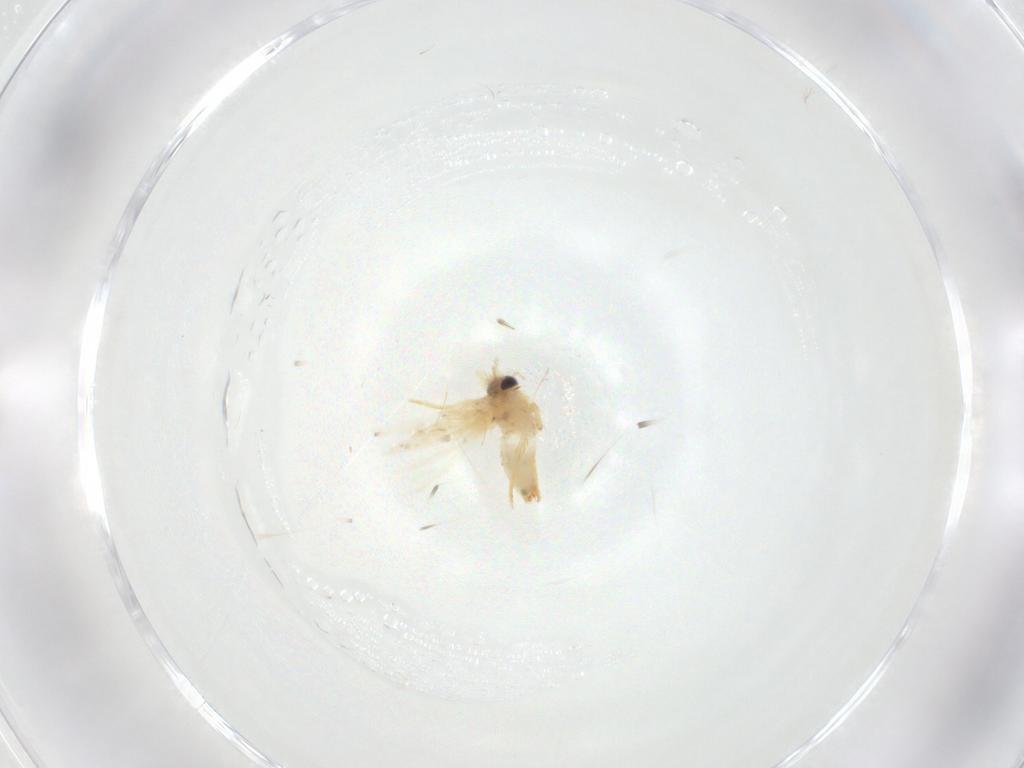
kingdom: Animalia
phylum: Arthropoda
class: Insecta
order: Lepidoptera
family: Crambidae
